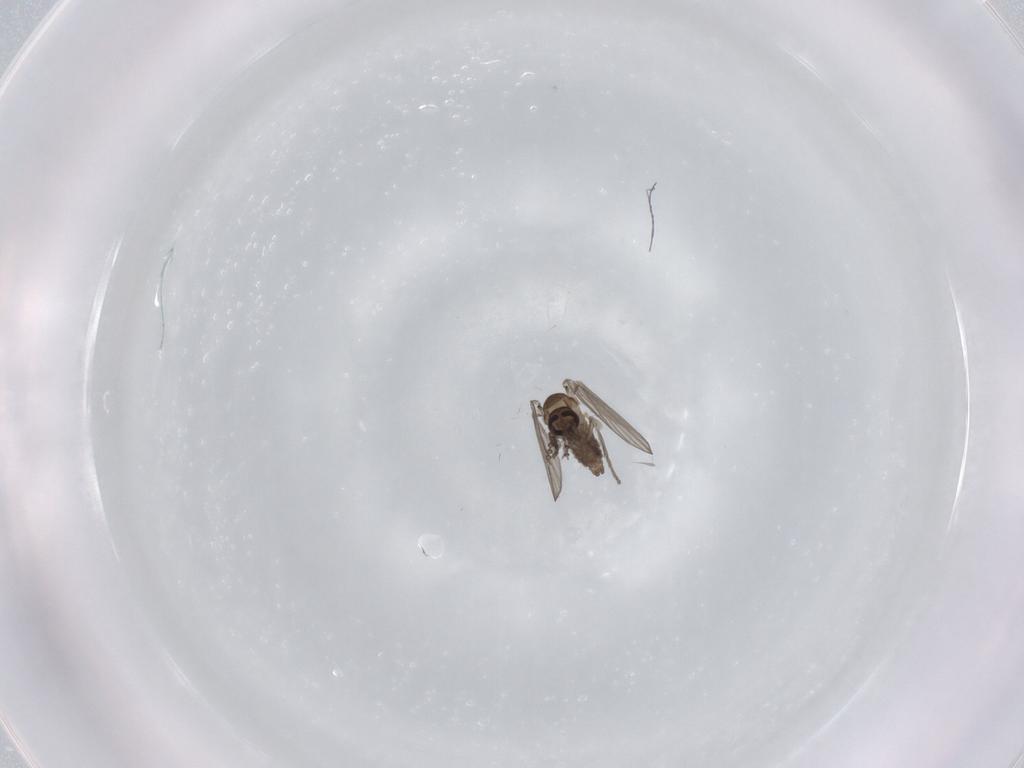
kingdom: Animalia
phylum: Arthropoda
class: Insecta
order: Diptera
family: Psychodidae
